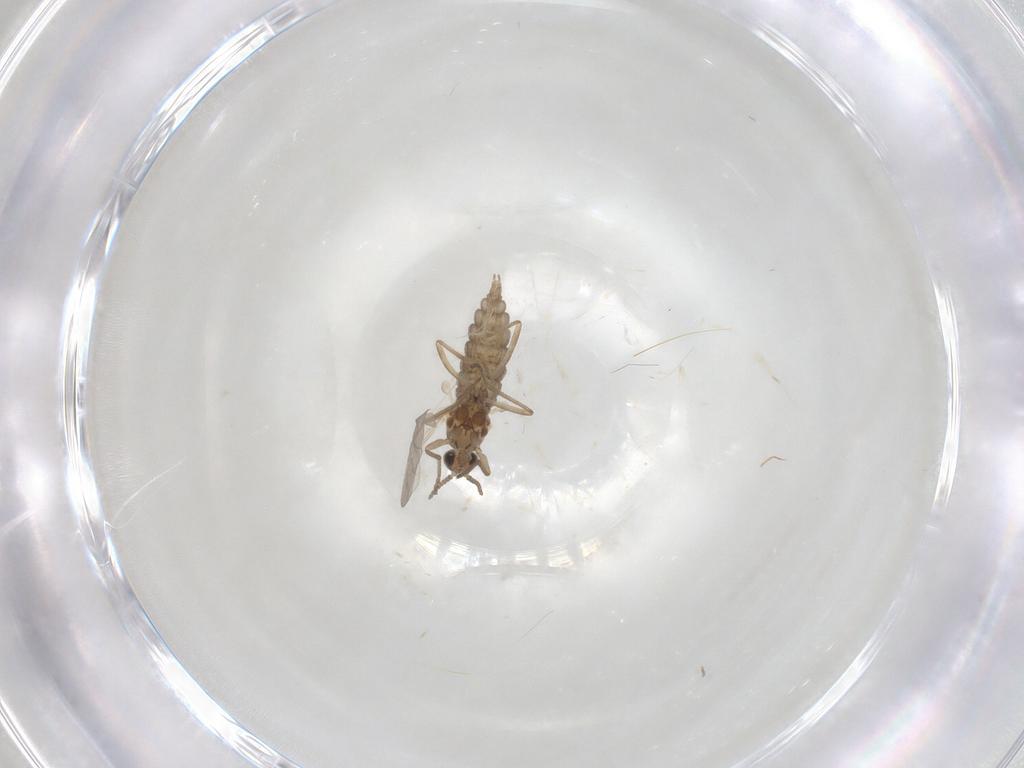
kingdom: Animalia
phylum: Arthropoda
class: Insecta
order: Diptera
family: Cecidomyiidae
